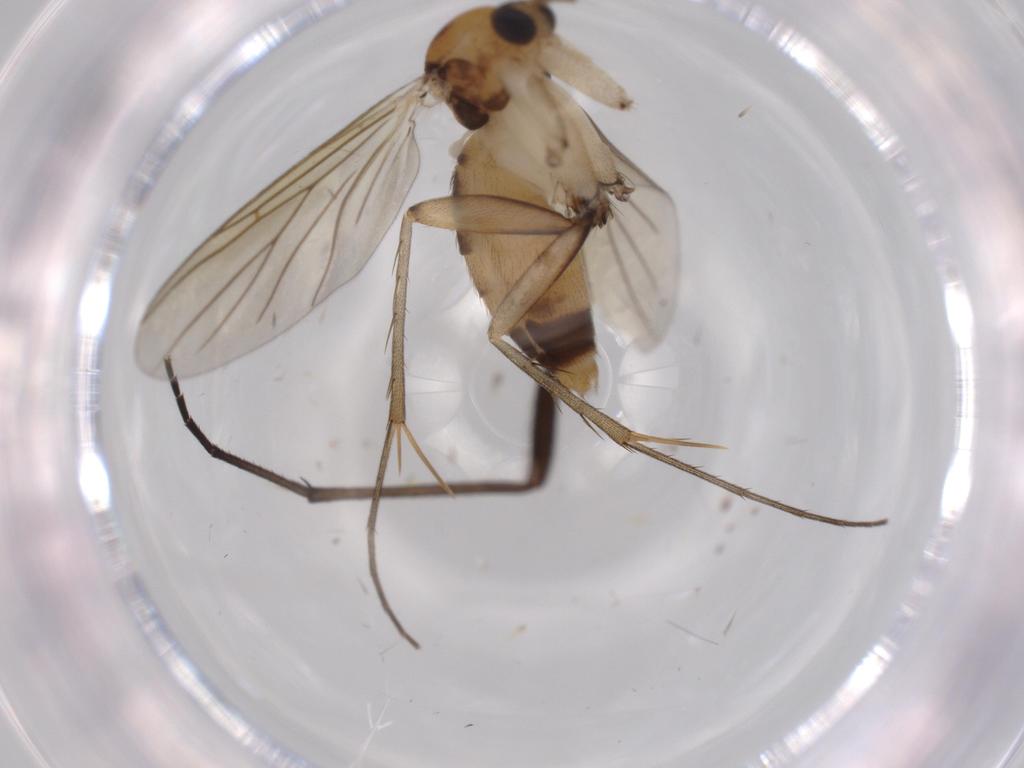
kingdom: Animalia
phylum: Arthropoda
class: Insecta
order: Diptera
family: Mycetophilidae
